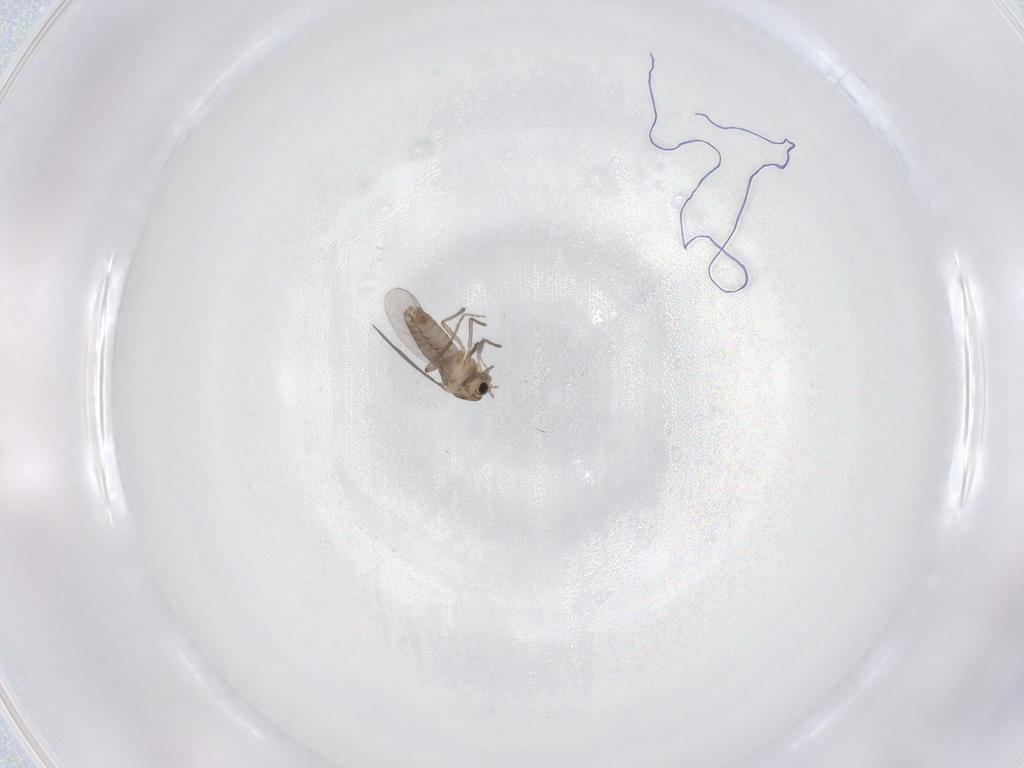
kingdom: Animalia
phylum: Arthropoda
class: Insecta
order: Diptera
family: Chironomidae
